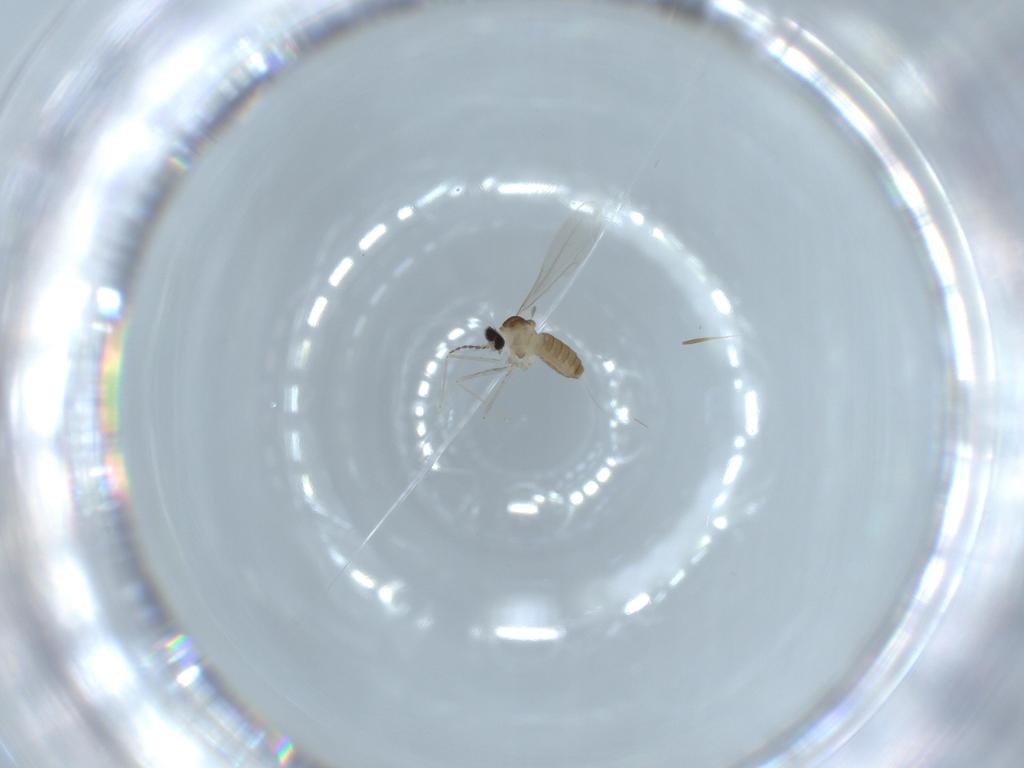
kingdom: Animalia
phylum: Arthropoda
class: Insecta
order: Diptera
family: Cecidomyiidae
